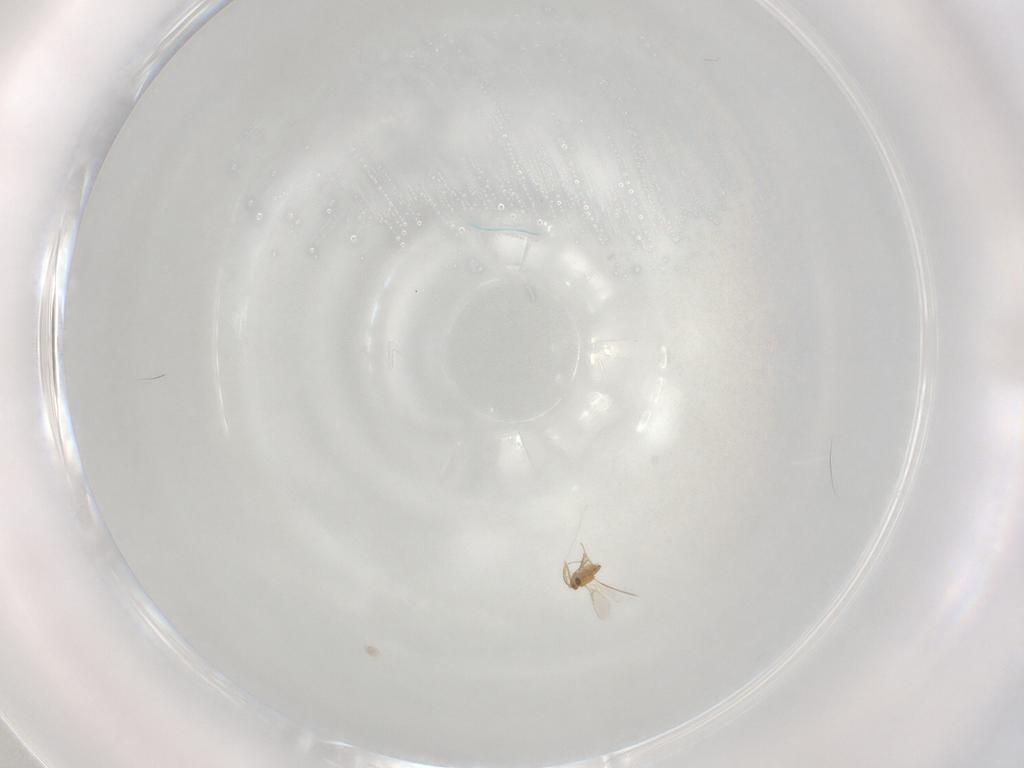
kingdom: Animalia
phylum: Arthropoda
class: Insecta
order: Hymenoptera
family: Aphelinidae
